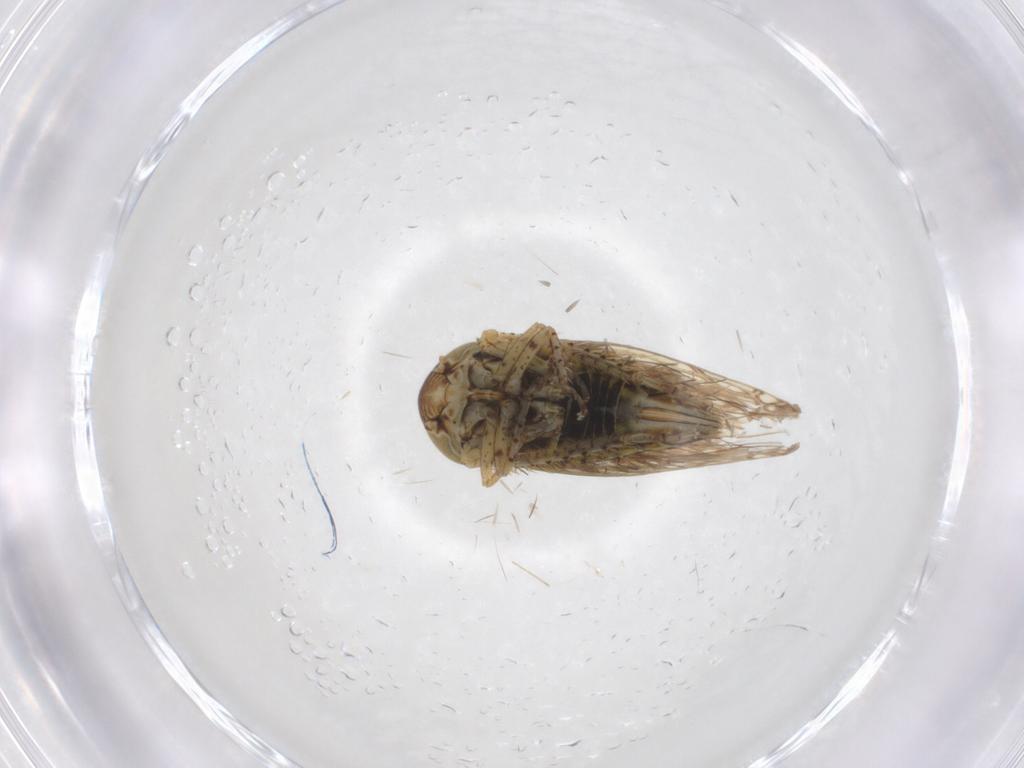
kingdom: Animalia
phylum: Arthropoda
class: Insecta
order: Hemiptera
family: Cicadellidae
